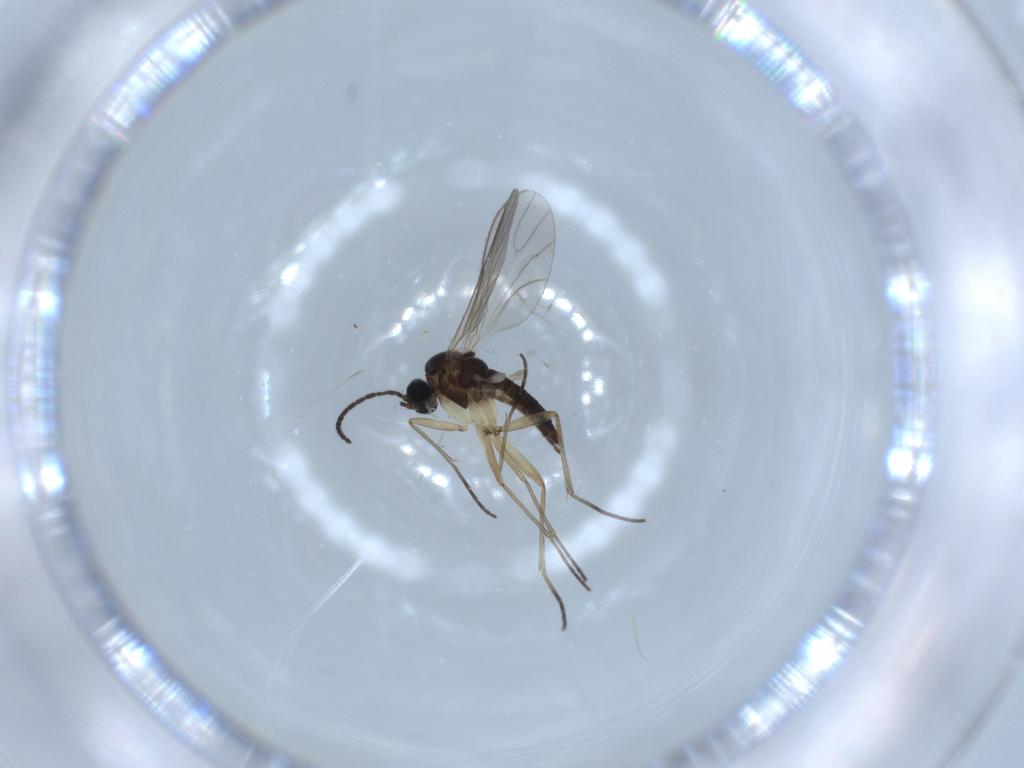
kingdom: Animalia
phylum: Arthropoda
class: Insecta
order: Diptera
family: Sciaridae
